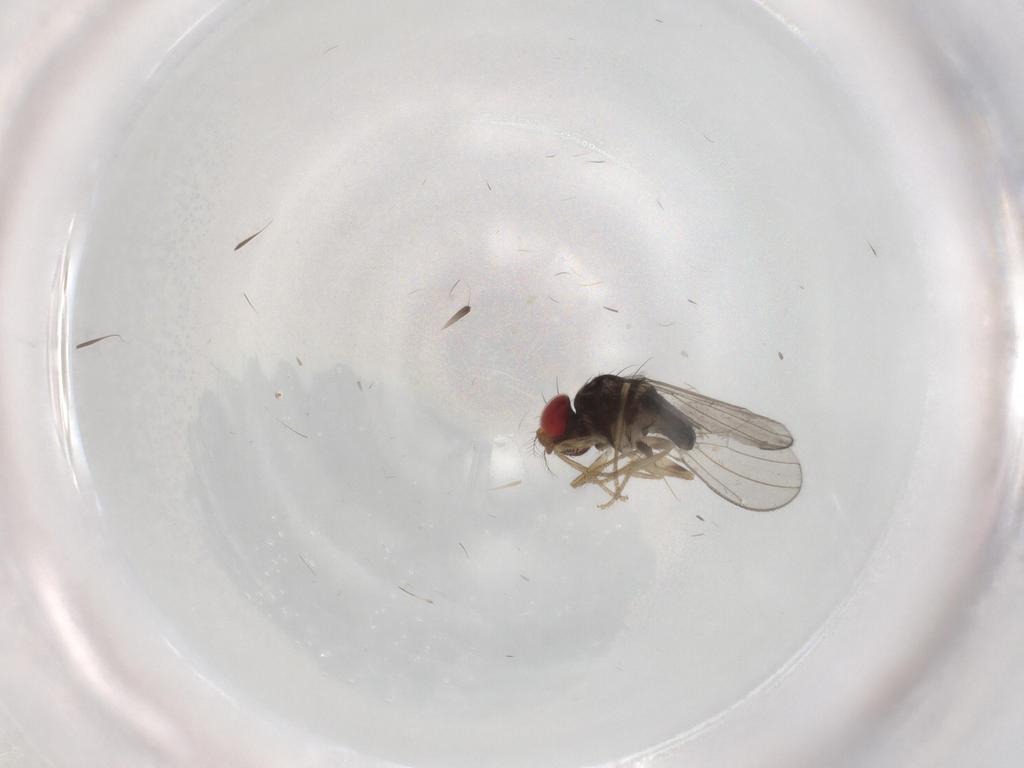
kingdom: Animalia
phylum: Arthropoda
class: Insecta
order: Diptera
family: Drosophilidae
